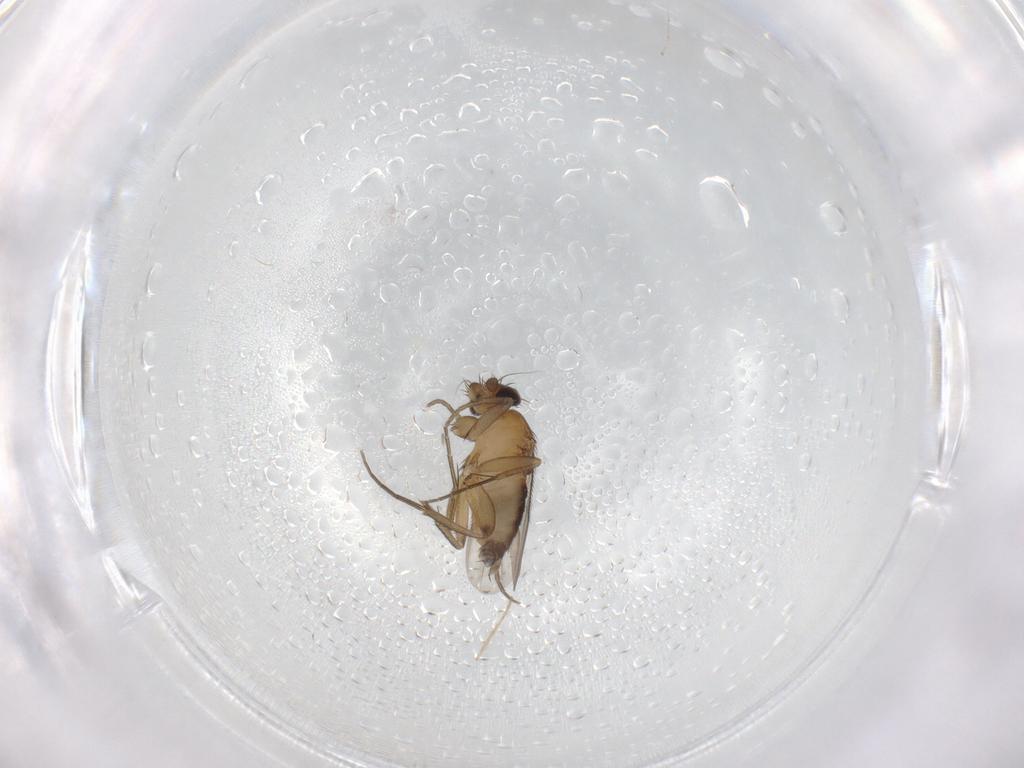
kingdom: Animalia
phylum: Arthropoda
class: Insecta
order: Diptera
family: Phoridae
